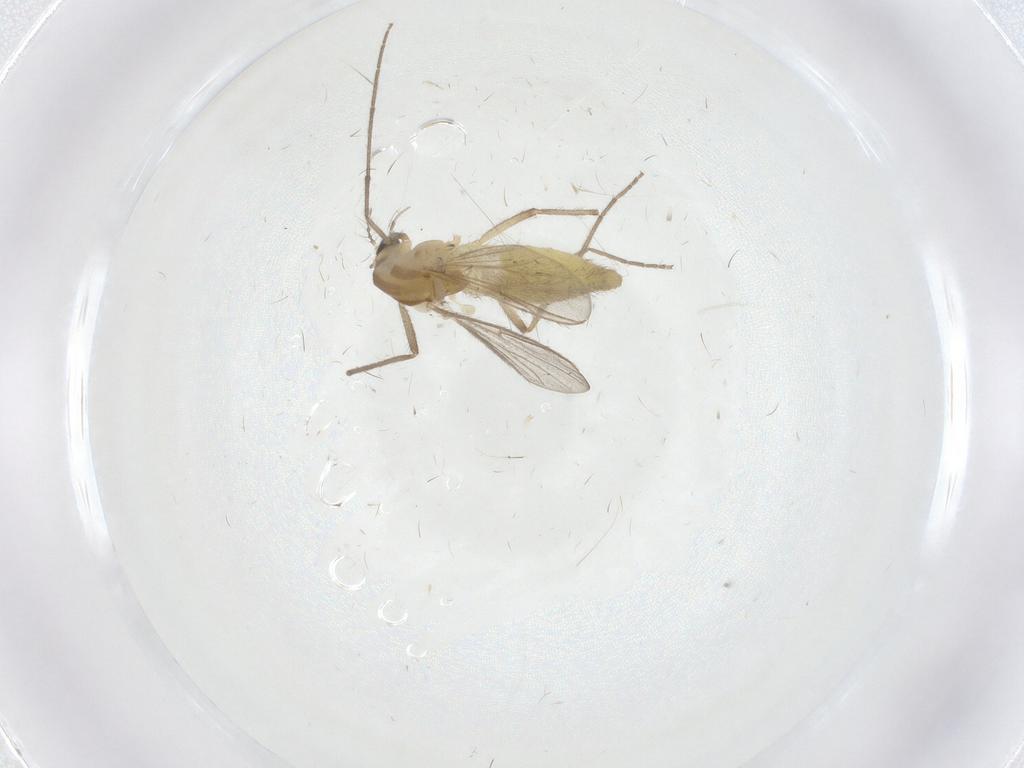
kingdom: Animalia
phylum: Arthropoda
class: Insecta
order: Diptera
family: Chironomidae
